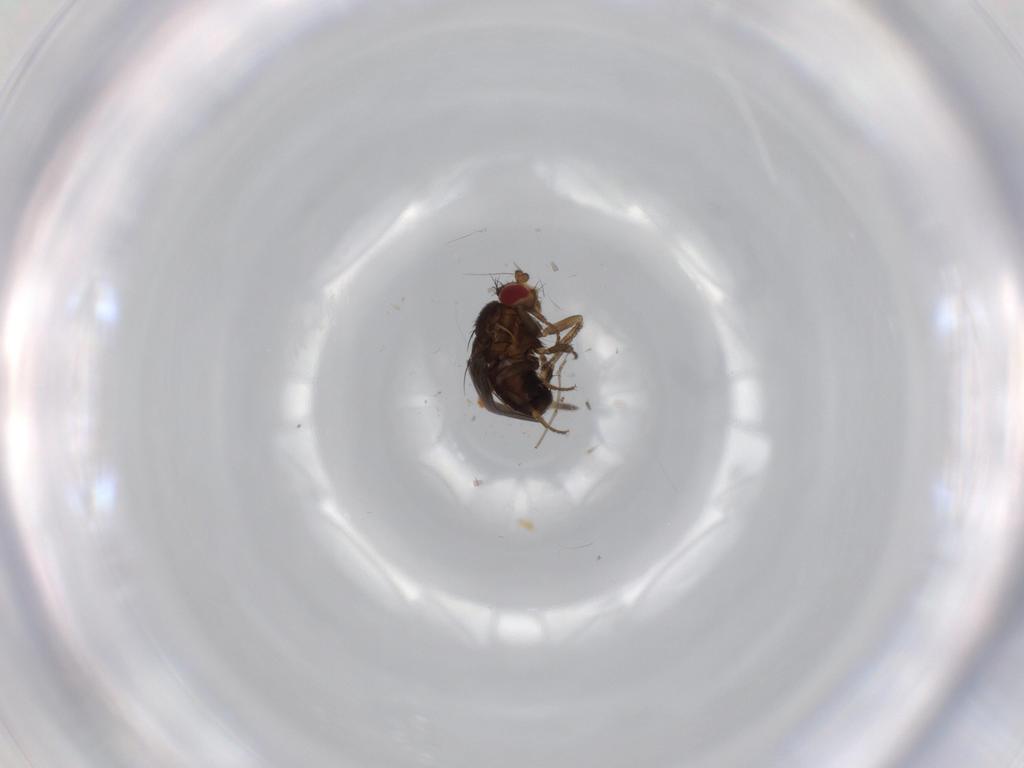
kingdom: Animalia
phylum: Arthropoda
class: Insecta
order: Diptera
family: Sphaeroceridae
